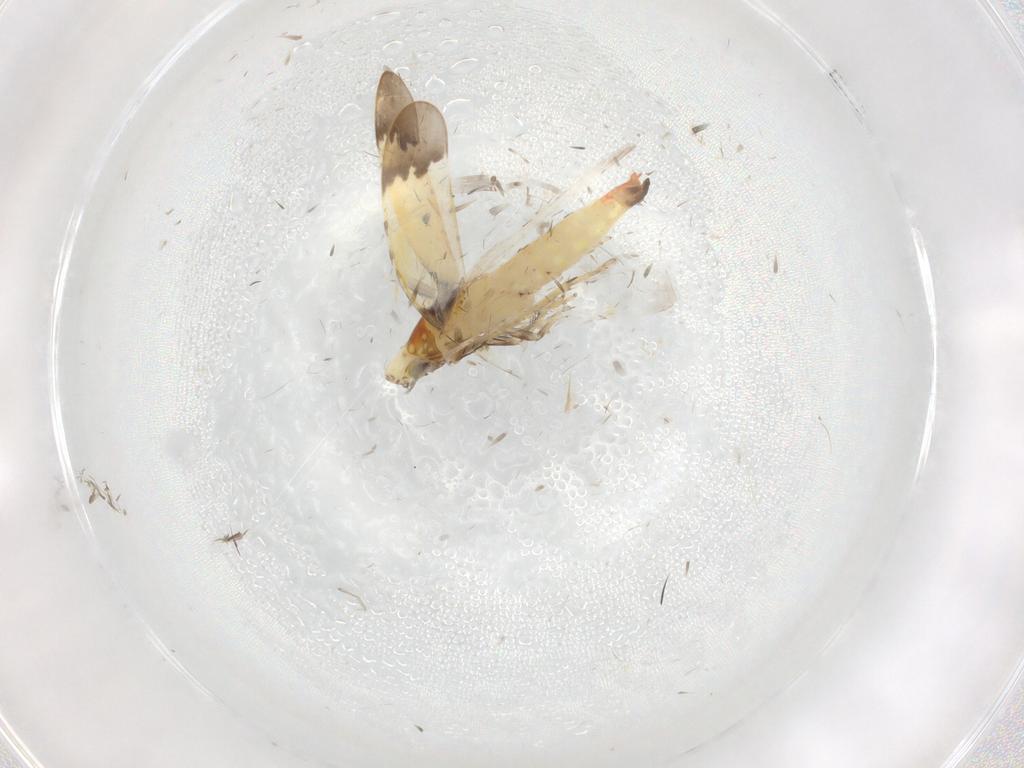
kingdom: Animalia
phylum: Arthropoda
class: Insecta
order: Hemiptera
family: Cicadellidae
